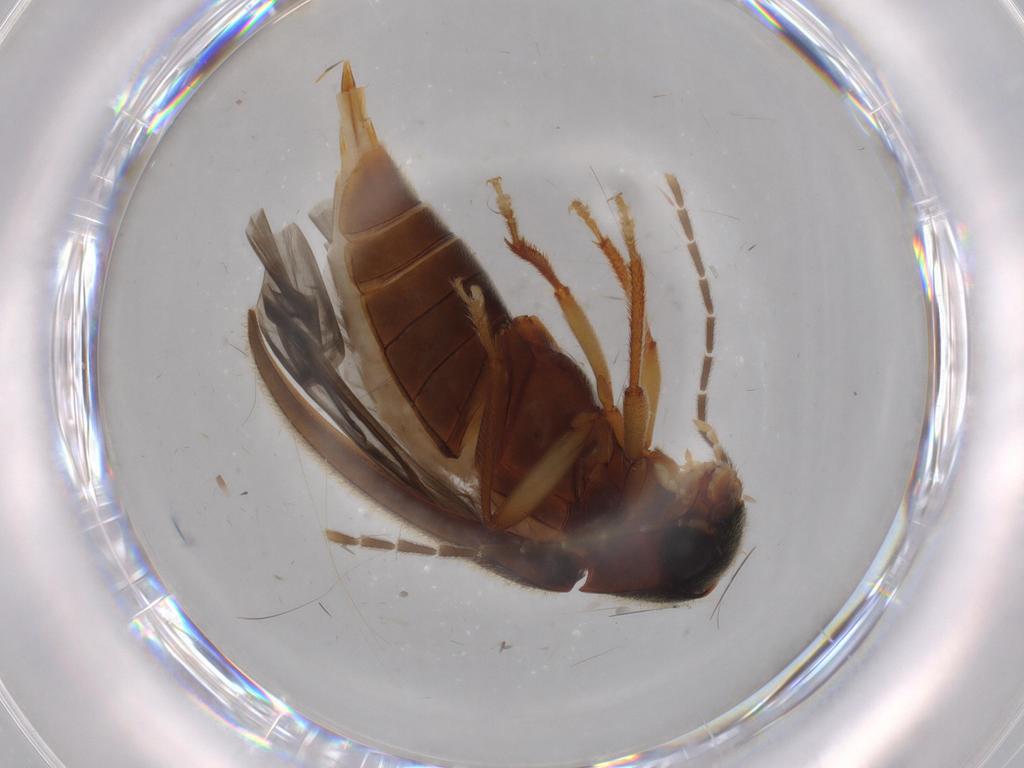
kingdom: Animalia
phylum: Arthropoda
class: Insecta
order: Coleoptera
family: Ptilodactylidae
